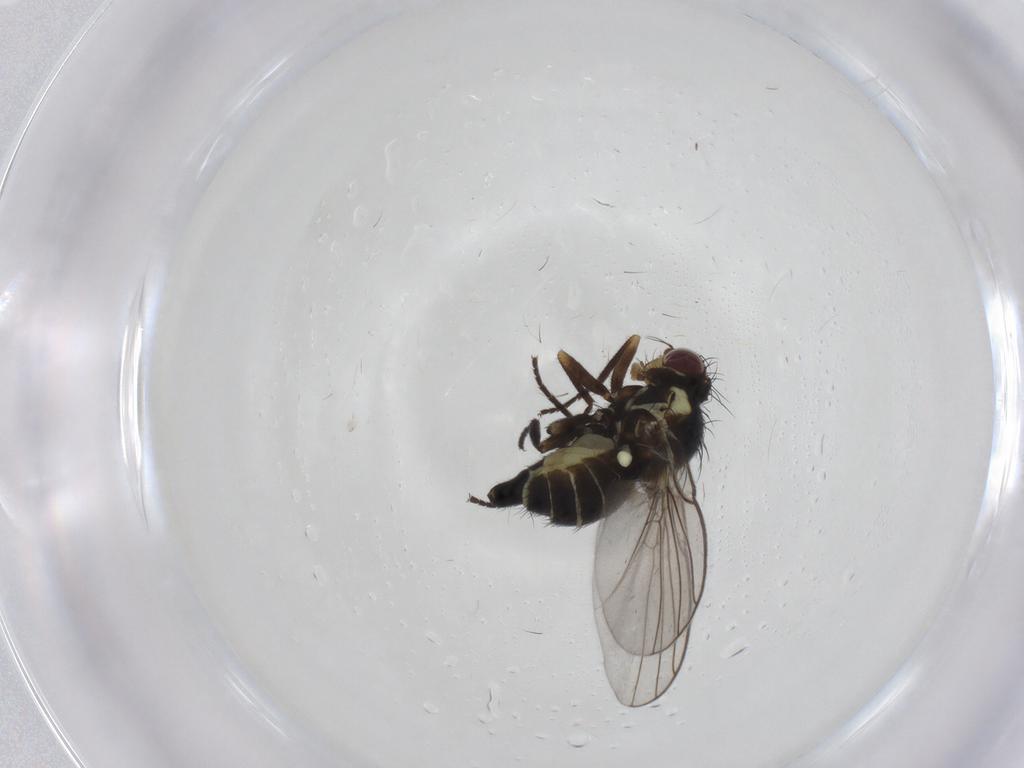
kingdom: Animalia
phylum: Arthropoda
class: Insecta
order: Diptera
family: Agromyzidae
